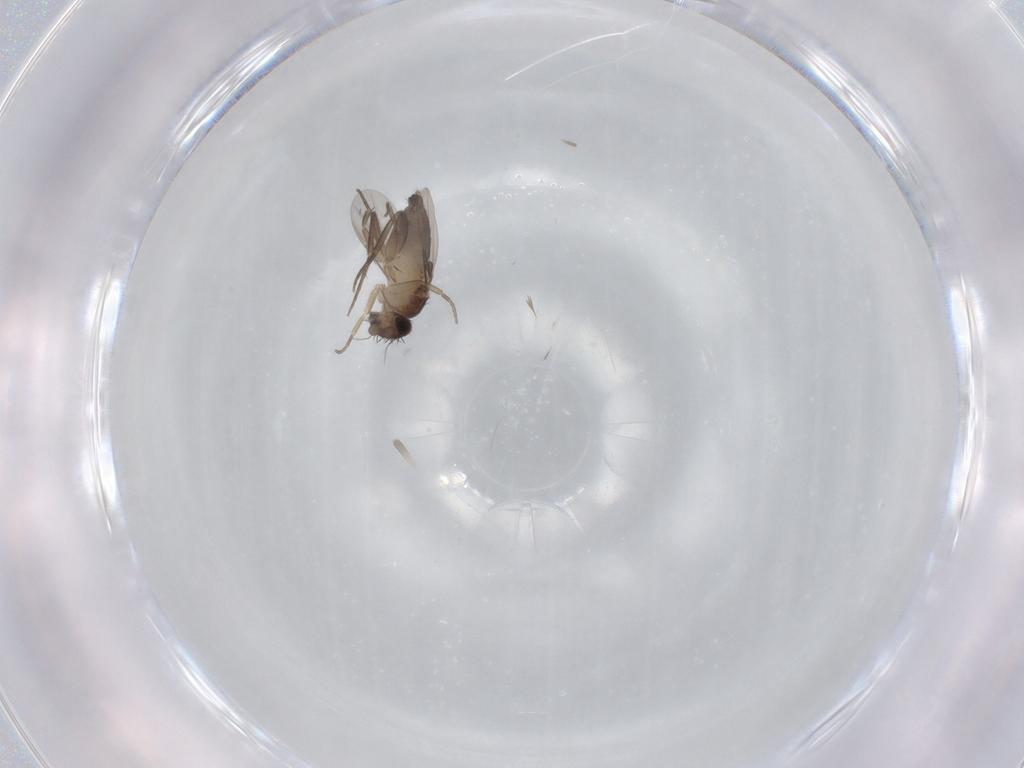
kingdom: Animalia
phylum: Arthropoda
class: Insecta
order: Diptera
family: Phoridae
